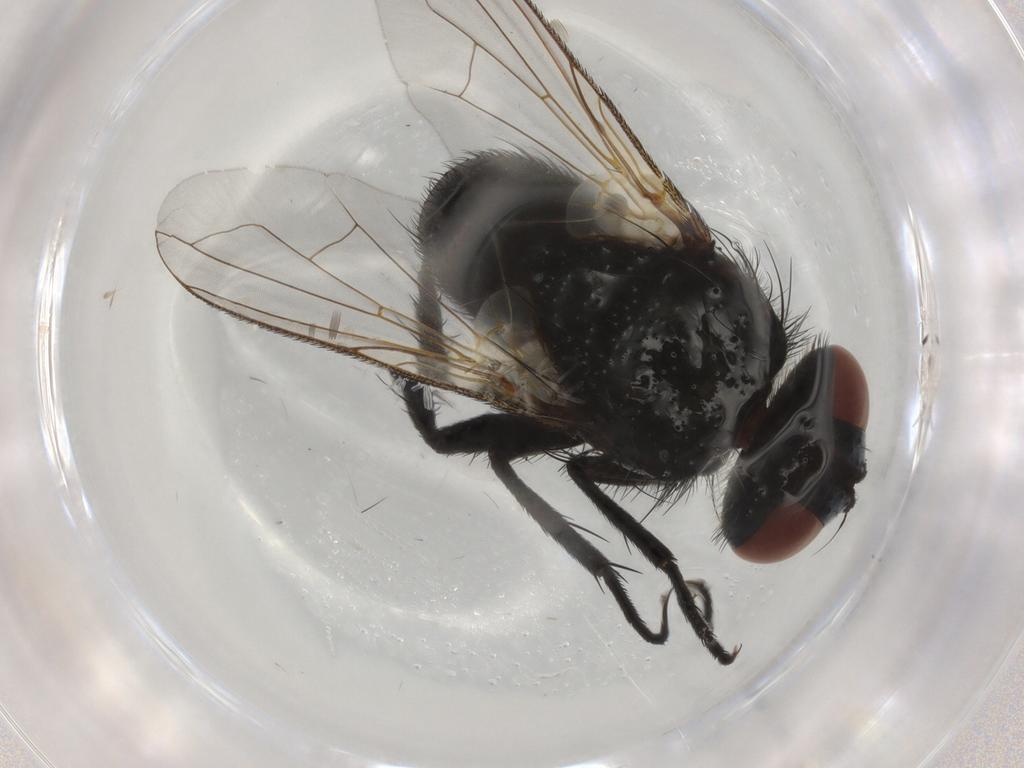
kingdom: Animalia
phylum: Arthropoda
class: Insecta
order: Diptera
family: Tachinidae
